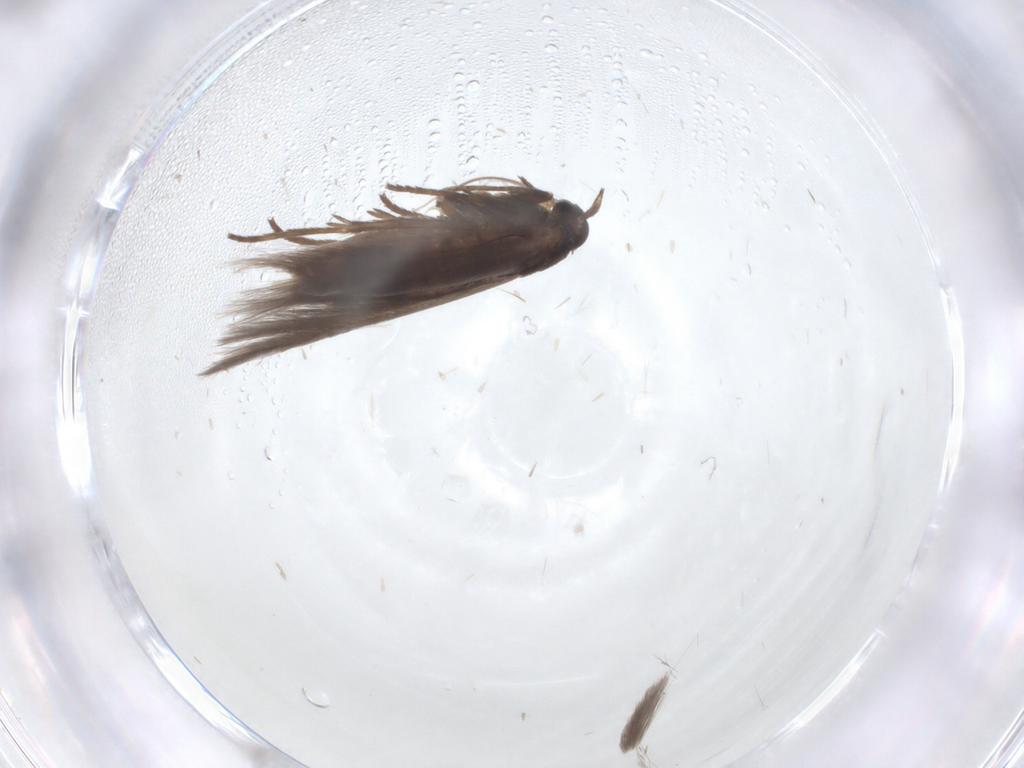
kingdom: Animalia
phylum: Arthropoda
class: Insecta
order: Lepidoptera
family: Scythrididae
